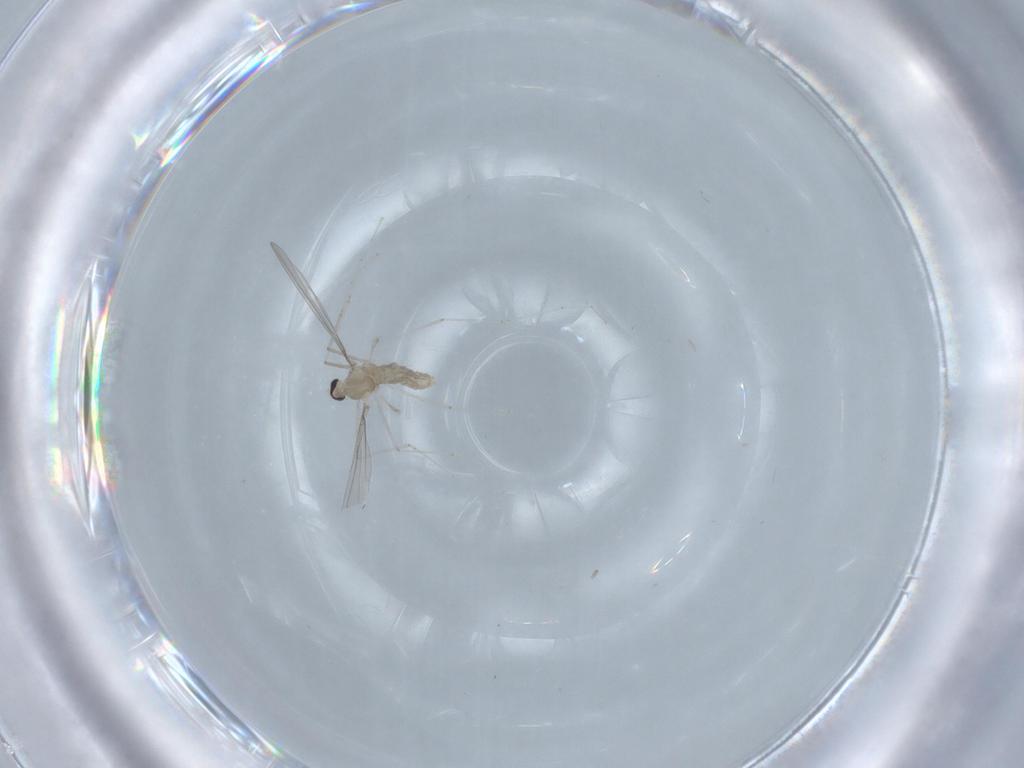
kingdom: Animalia
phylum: Arthropoda
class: Insecta
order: Diptera
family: Cecidomyiidae
